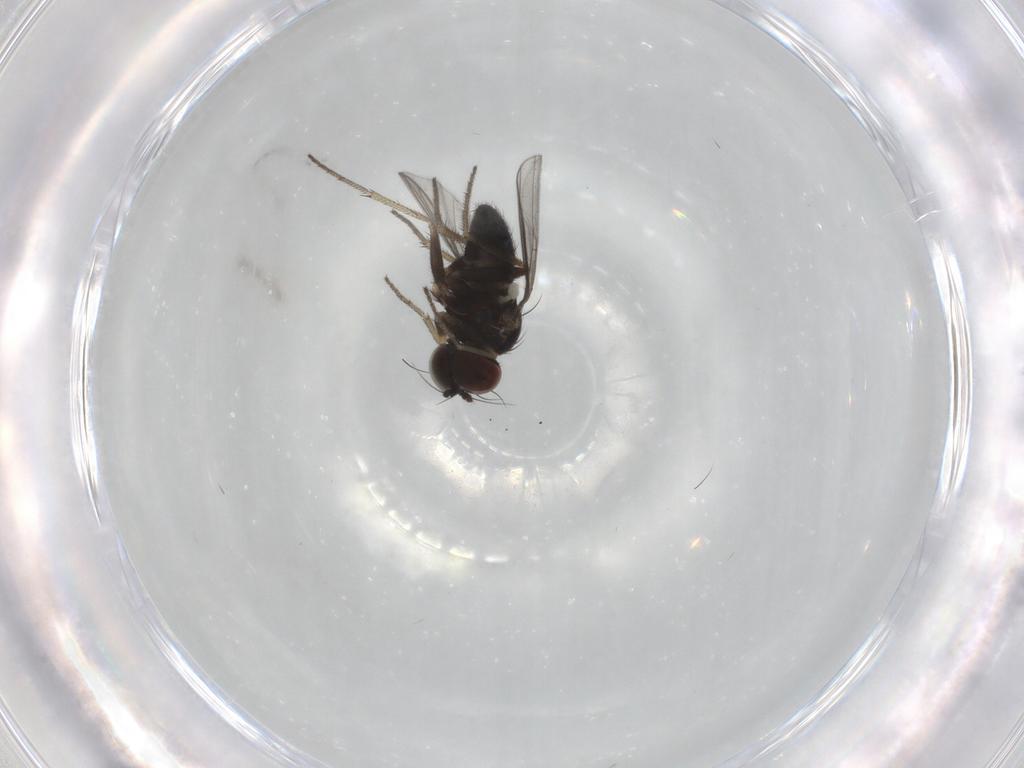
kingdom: Animalia
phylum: Arthropoda
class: Insecta
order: Diptera
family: Dolichopodidae
